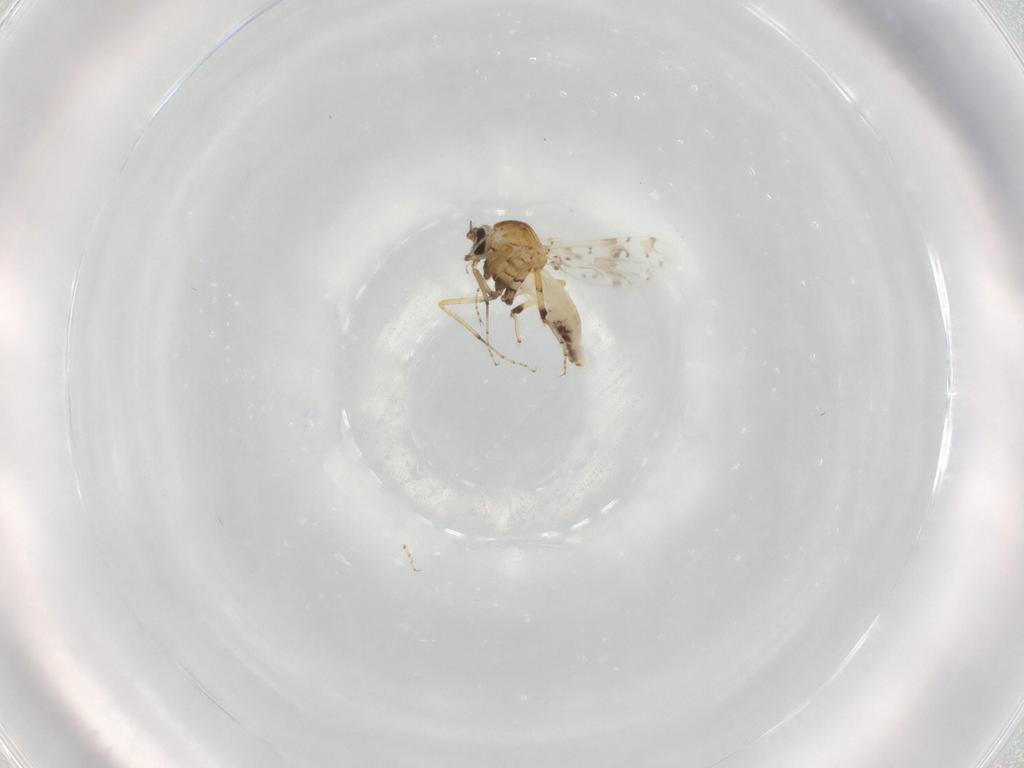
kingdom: Animalia
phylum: Arthropoda
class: Insecta
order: Diptera
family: Ceratopogonidae
